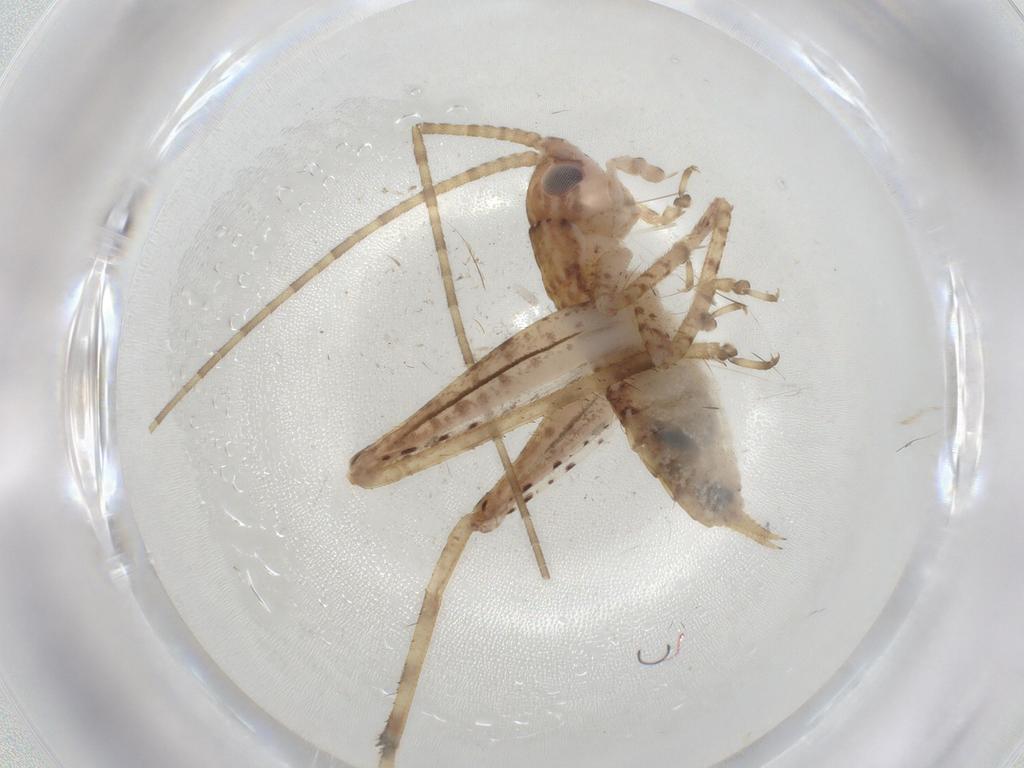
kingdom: Animalia
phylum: Arthropoda
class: Insecta
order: Orthoptera
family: Gryllidae
